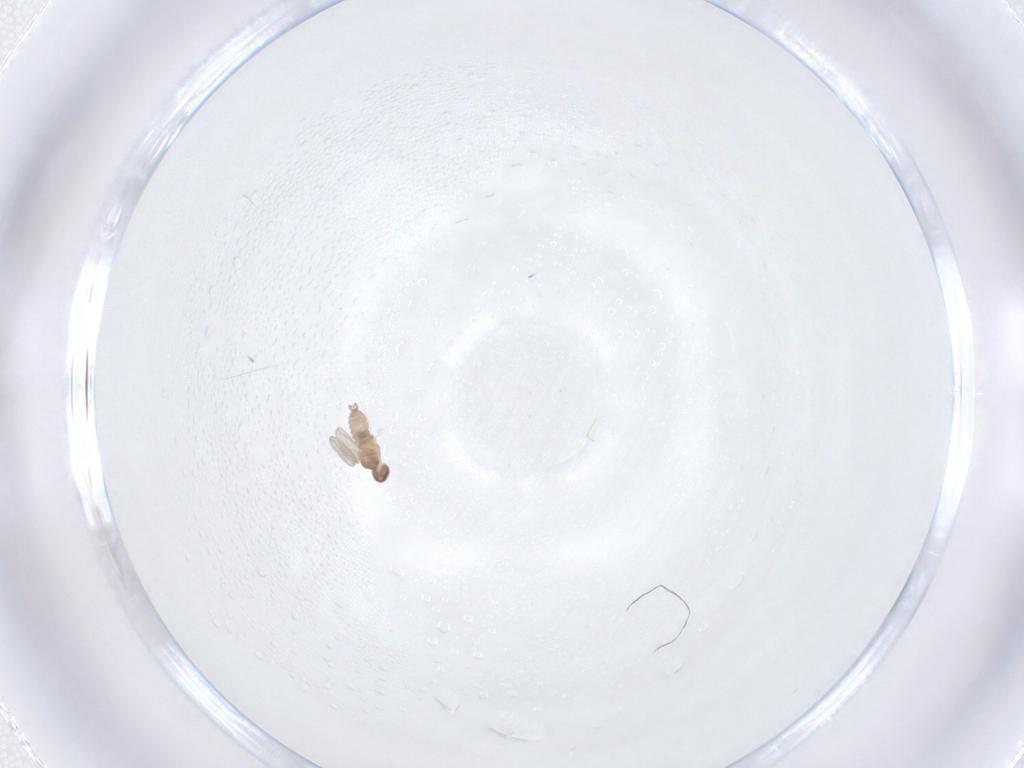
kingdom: Animalia
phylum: Arthropoda
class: Insecta
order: Diptera
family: Cecidomyiidae
